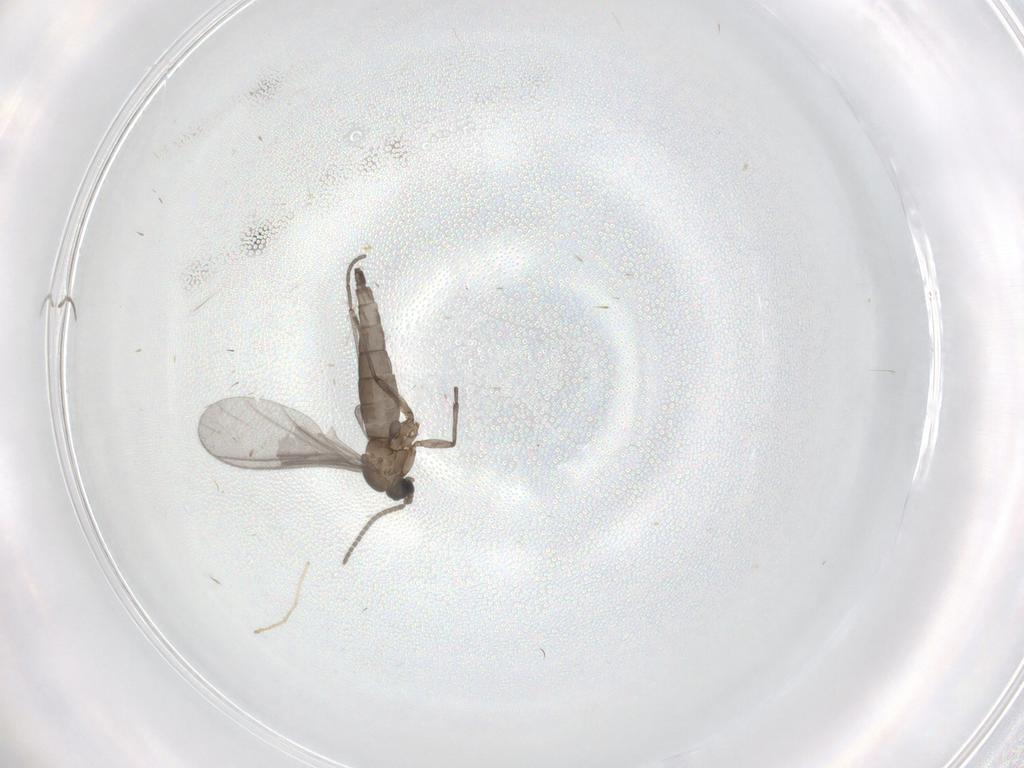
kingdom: Animalia
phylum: Arthropoda
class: Insecta
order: Diptera
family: Sciaridae
